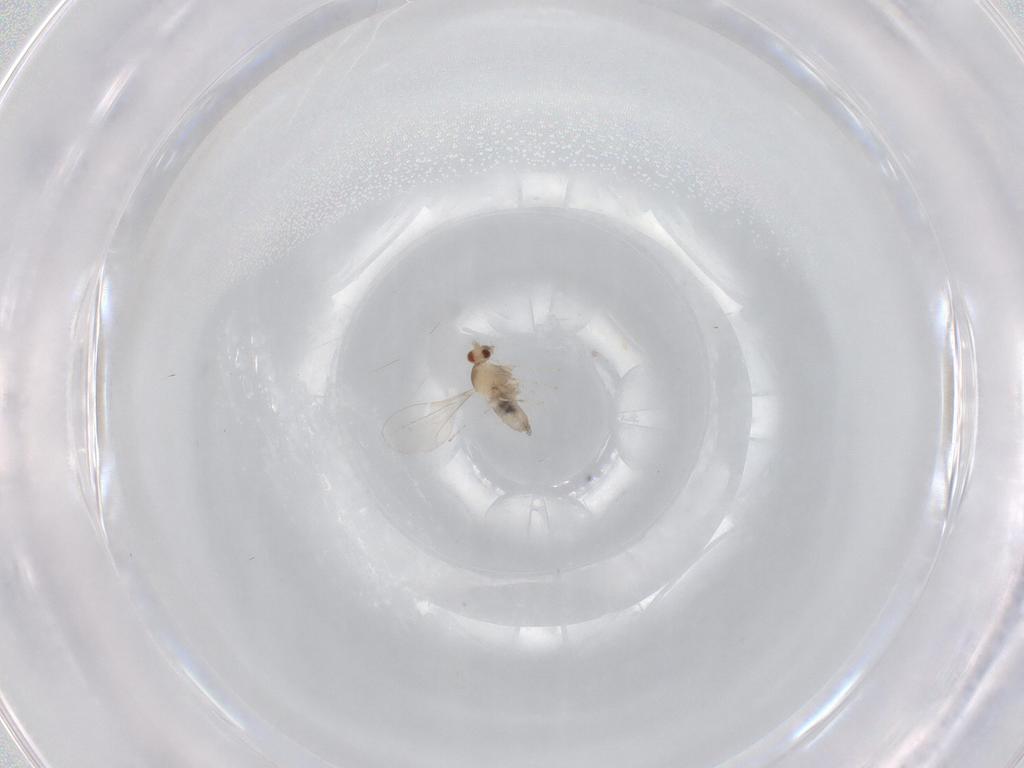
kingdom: Animalia
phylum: Arthropoda
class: Insecta
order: Diptera
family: Cecidomyiidae
